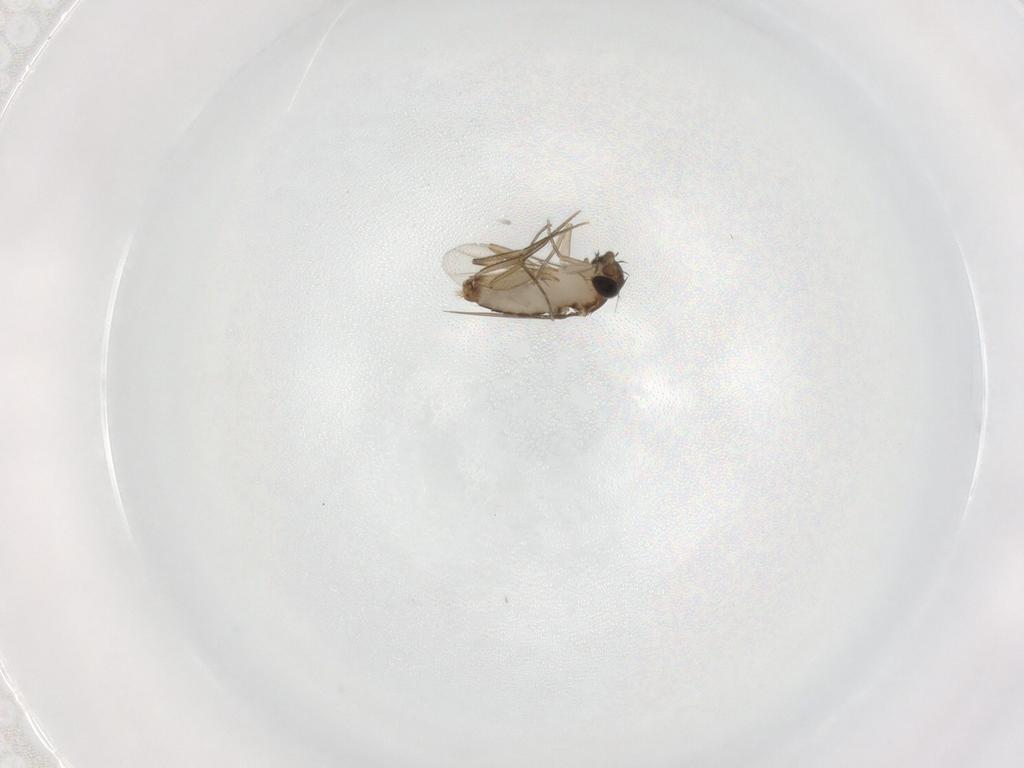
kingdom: Animalia
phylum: Arthropoda
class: Insecta
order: Diptera
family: Phoridae
